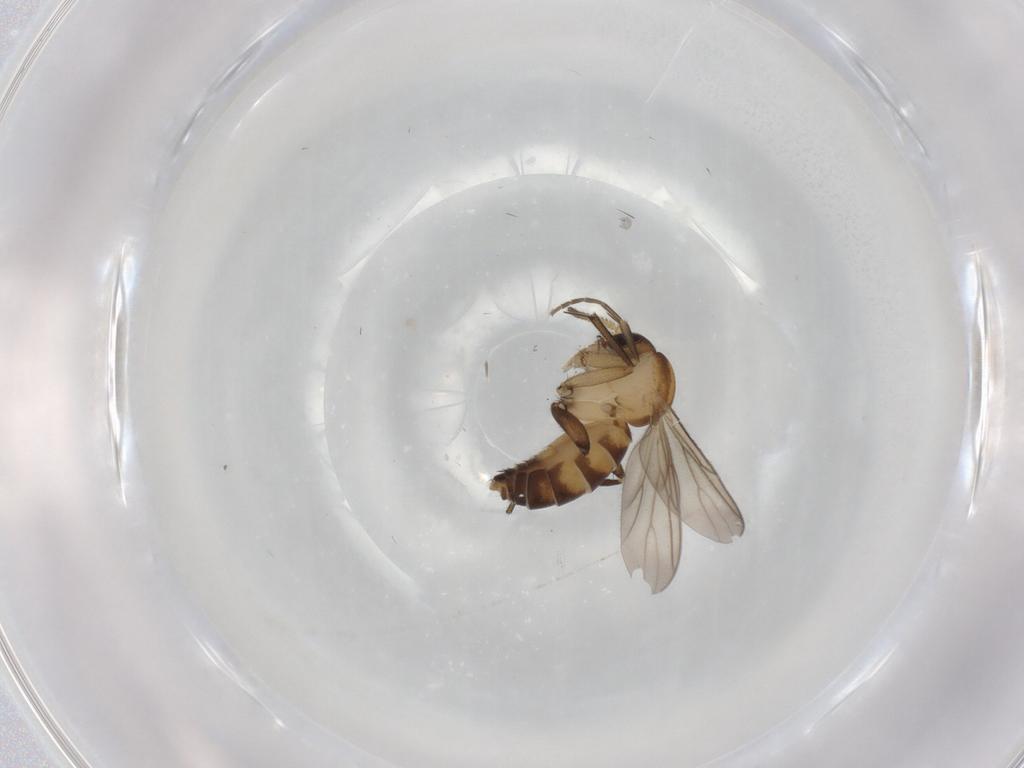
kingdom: Animalia
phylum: Arthropoda
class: Insecta
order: Diptera
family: Mycetophilidae
